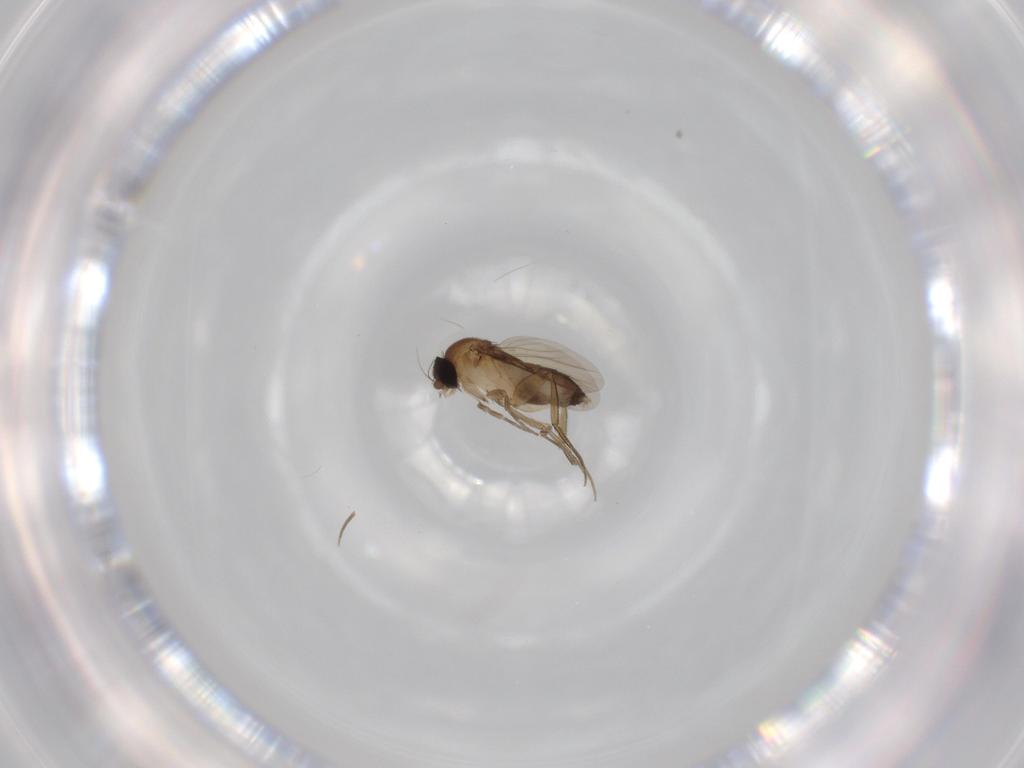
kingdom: Animalia
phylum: Arthropoda
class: Insecta
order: Diptera
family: Phoridae
